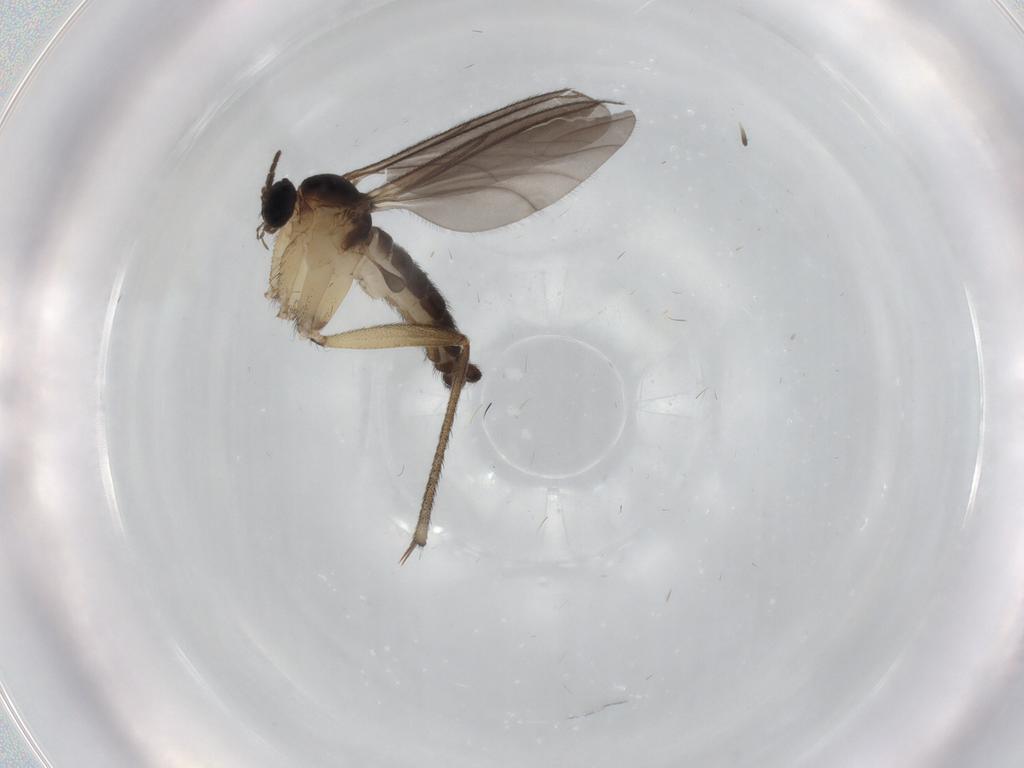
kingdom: Animalia
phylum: Arthropoda
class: Insecta
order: Diptera
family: Sciaridae
